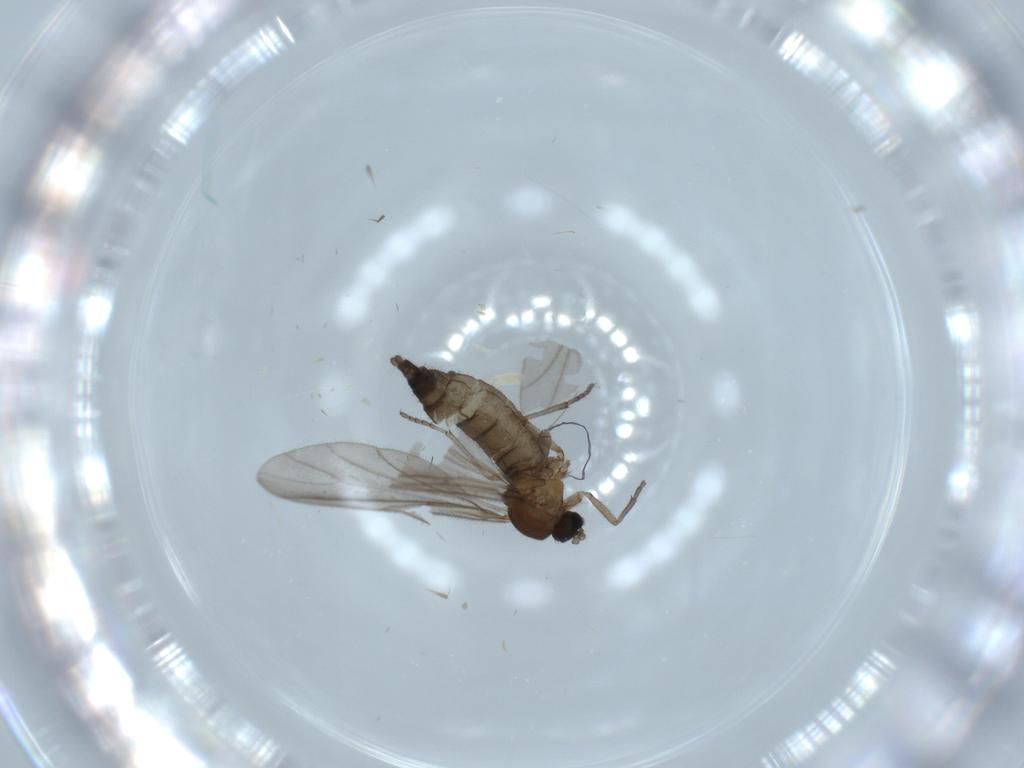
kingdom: Animalia
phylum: Arthropoda
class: Insecta
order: Diptera
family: Sciaridae
